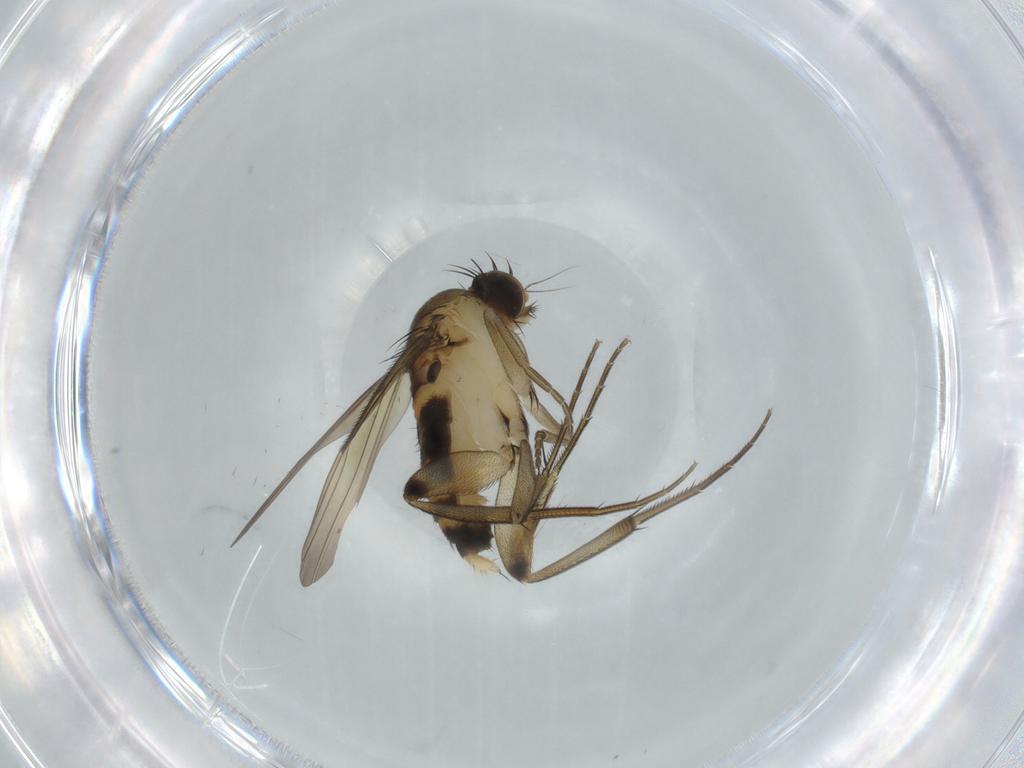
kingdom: Animalia
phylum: Arthropoda
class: Insecta
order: Diptera
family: Phoridae
